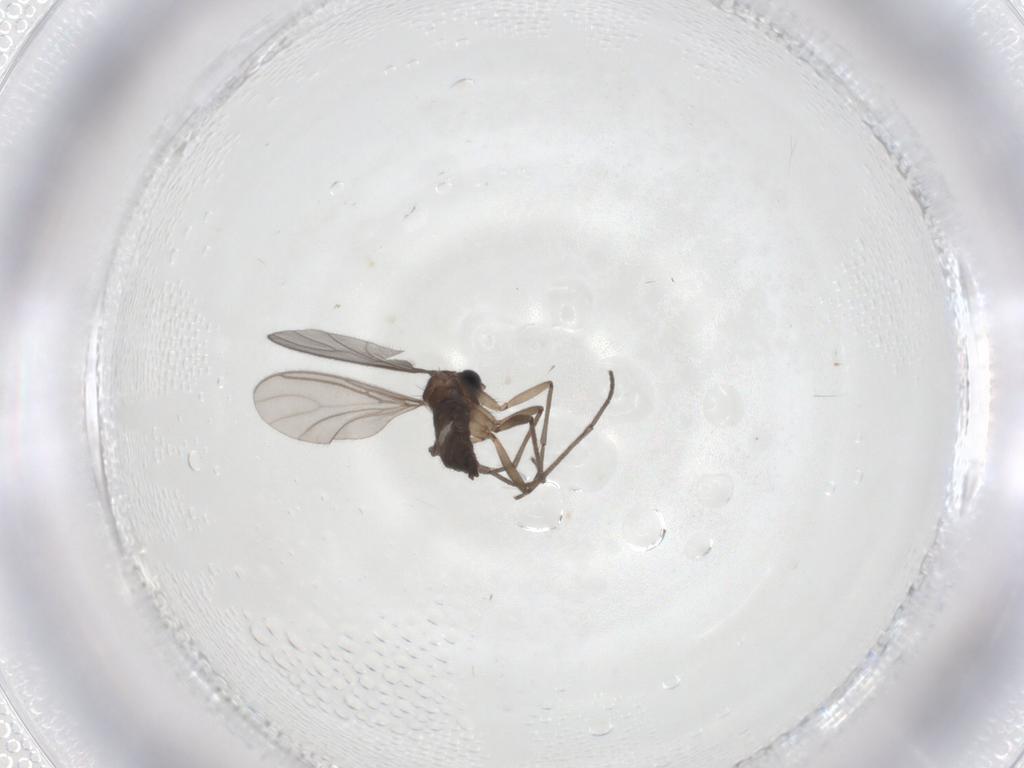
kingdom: Animalia
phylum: Arthropoda
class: Insecta
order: Diptera
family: Sciaridae
